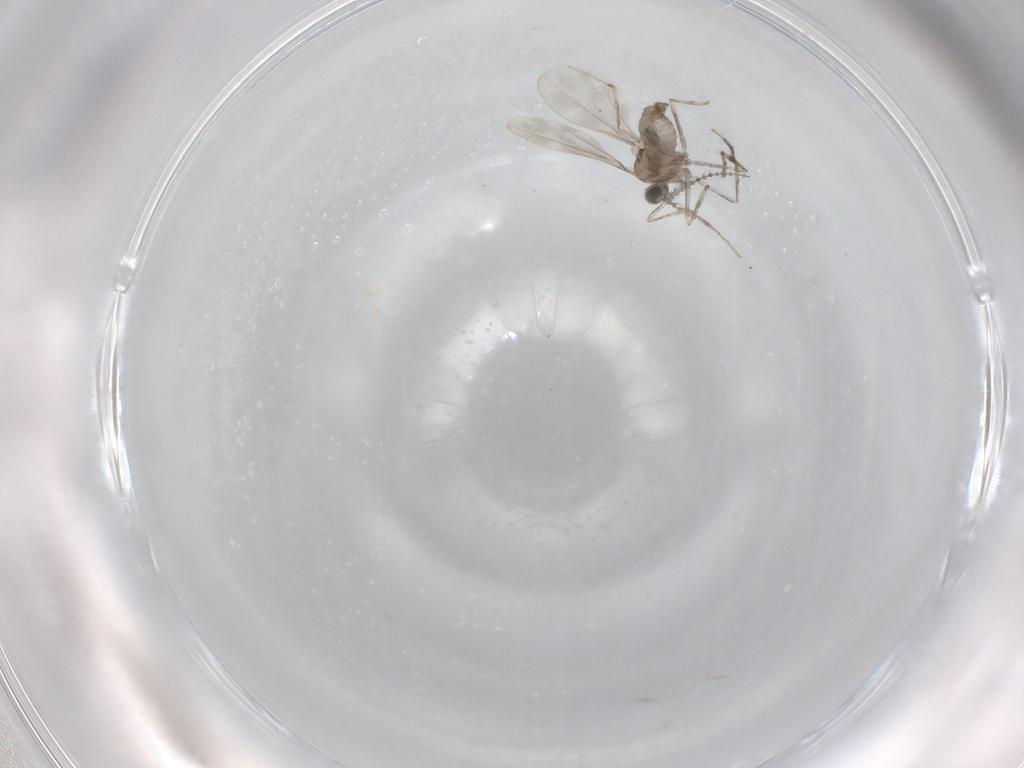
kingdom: Animalia
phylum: Arthropoda
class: Insecta
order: Diptera
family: Cecidomyiidae
